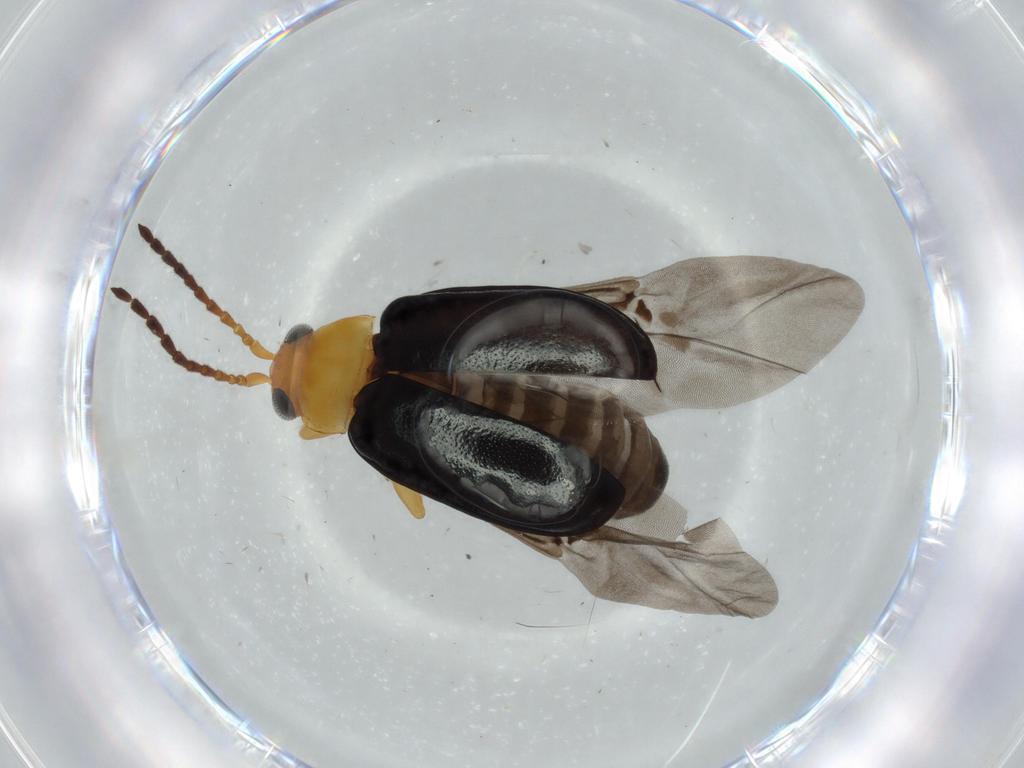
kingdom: Animalia
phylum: Arthropoda
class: Insecta
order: Coleoptera
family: Chrysomelidae
